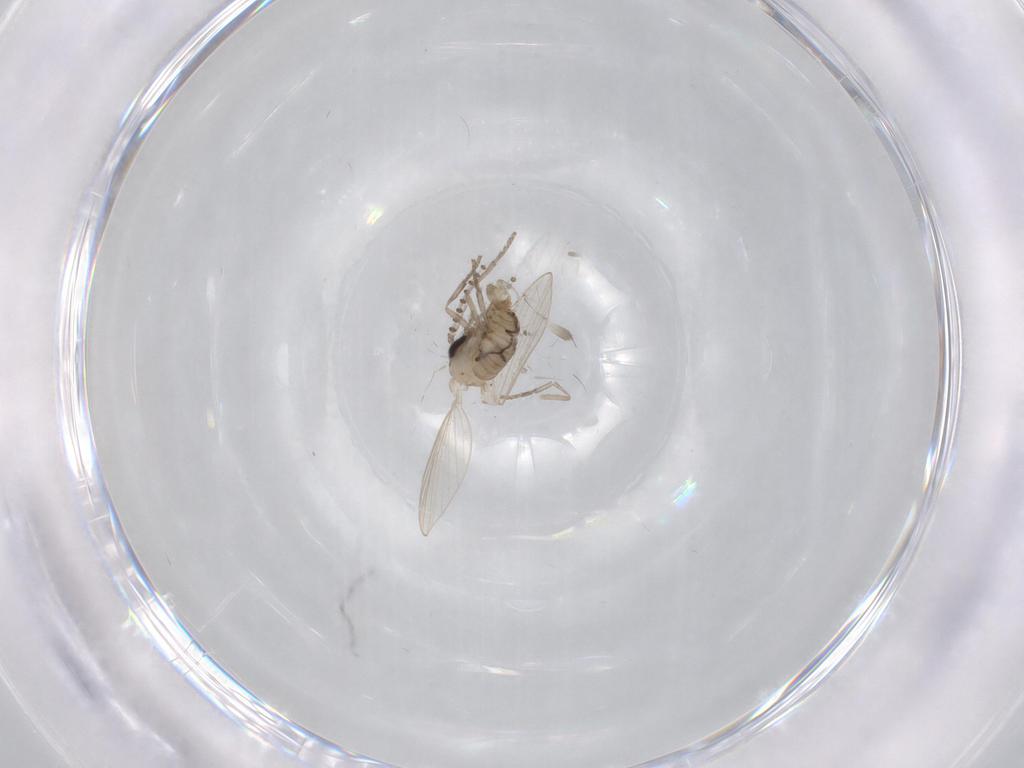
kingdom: Animalia
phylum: Arthropoda
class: Insecta
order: Diptera
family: Psychodidae
